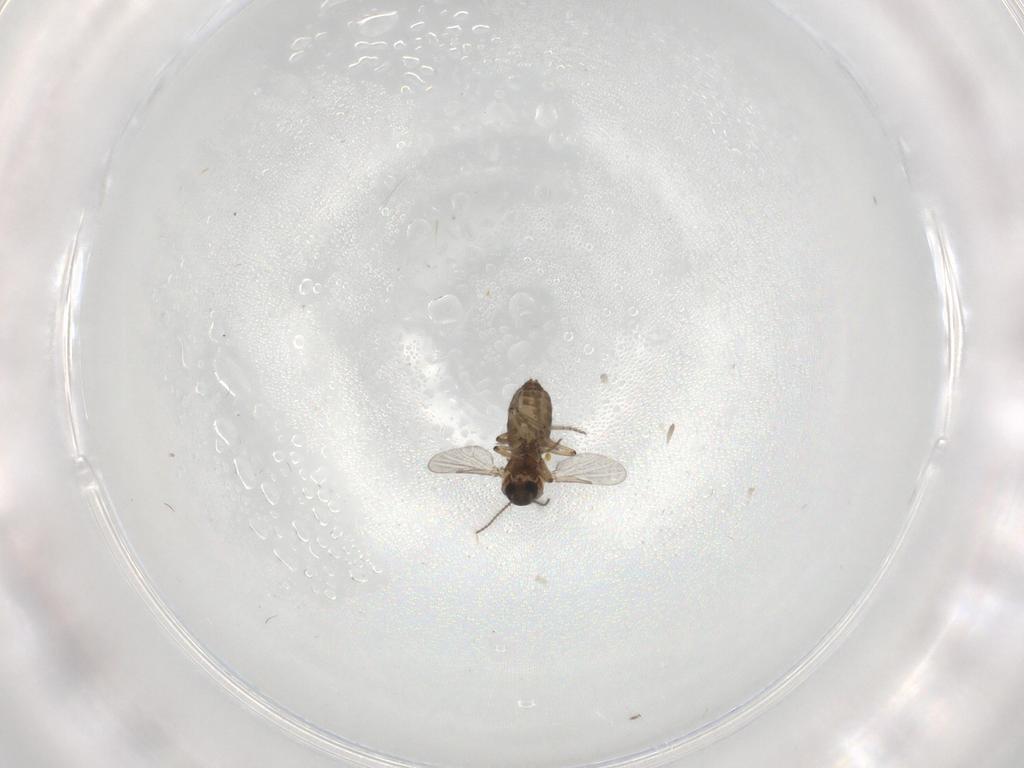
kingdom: Animalia
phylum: Arthropoda
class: Insecta
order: Diptera
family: Ceratopogonidae
